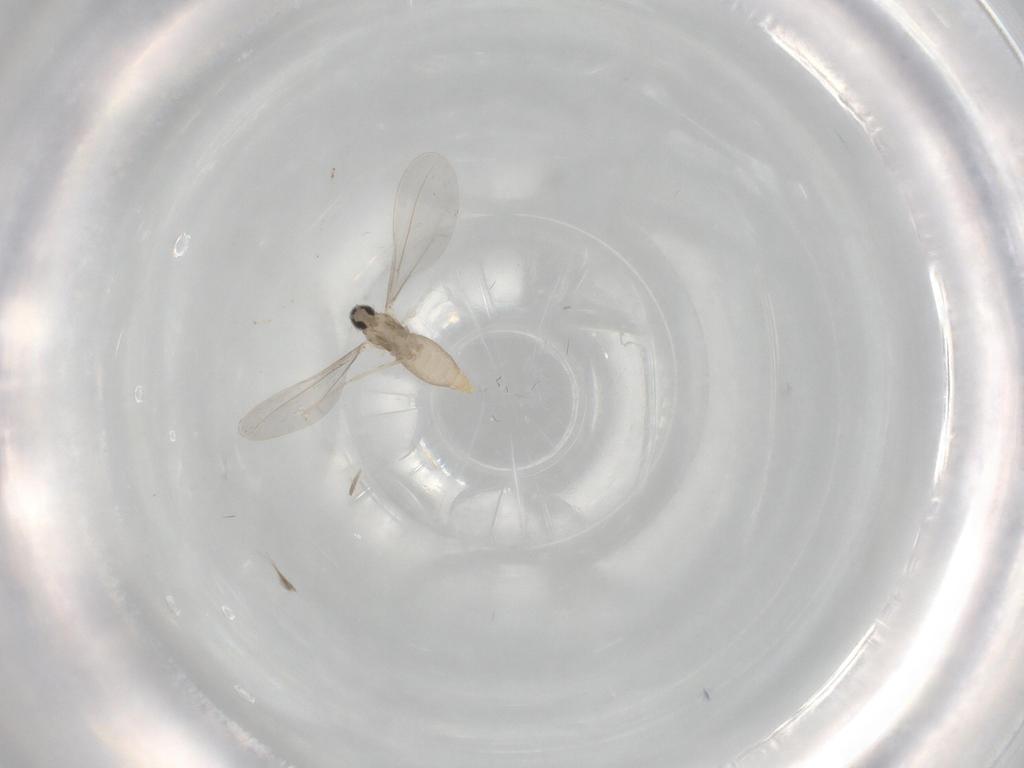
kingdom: Animalia
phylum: Arthropoda
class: Insecta
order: Diptera
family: Cecidomyiidae
